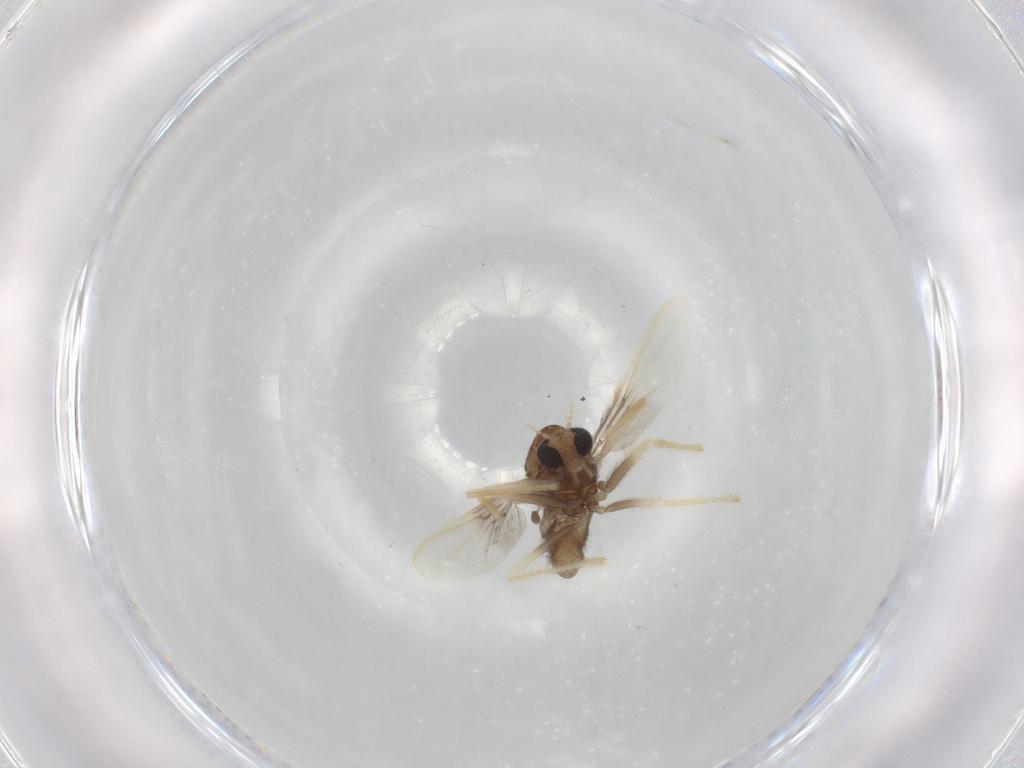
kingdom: Animalia
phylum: Arthropoda
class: Insecta
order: Diptera
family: Chironomidae
